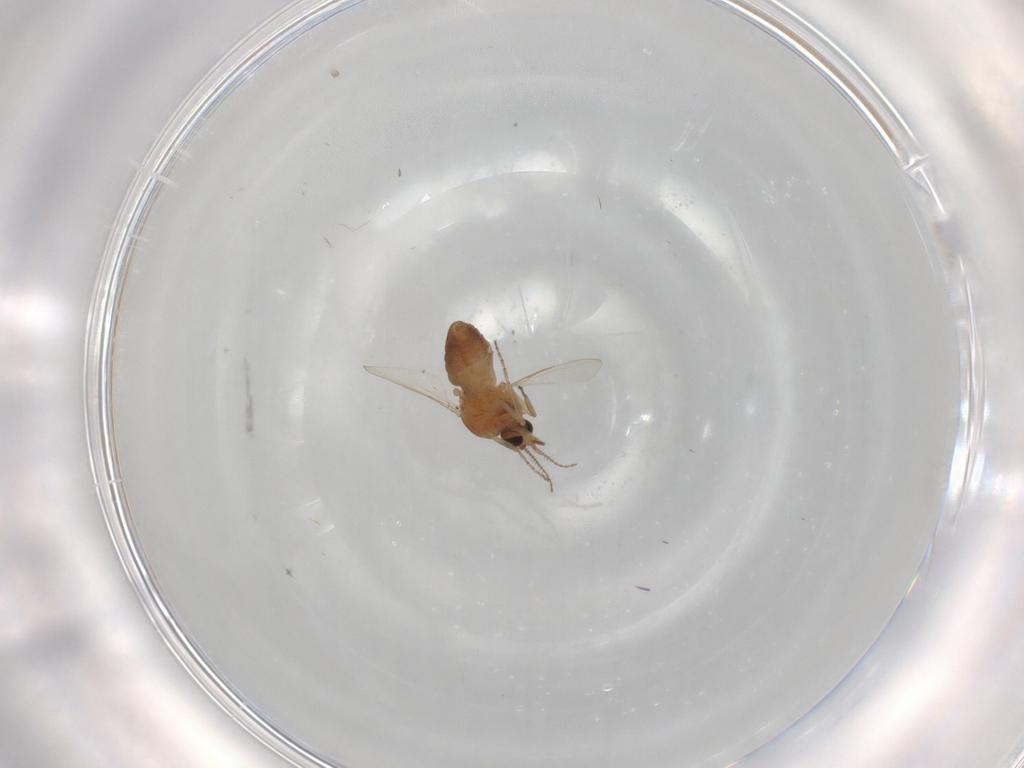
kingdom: Animalia
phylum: Arthropoda
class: Insecta
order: Diptera
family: Ceratopogonidae
